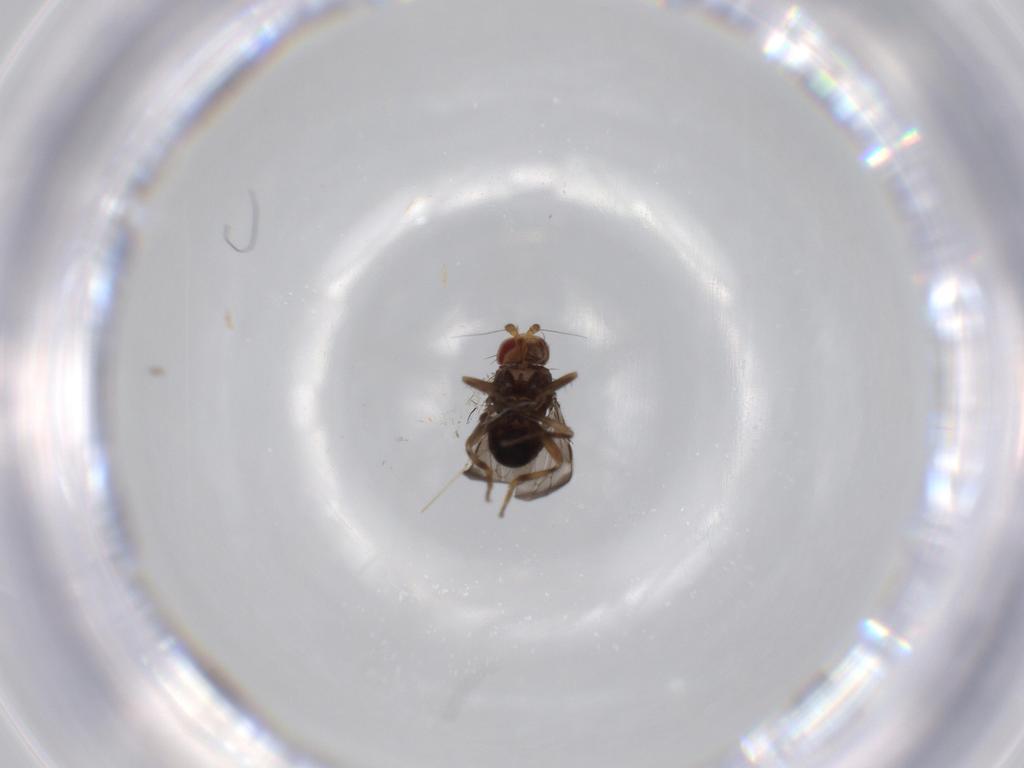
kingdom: Animalia
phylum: Arthropoda
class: Insecta
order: Diptera
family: Cecidomyiidae
